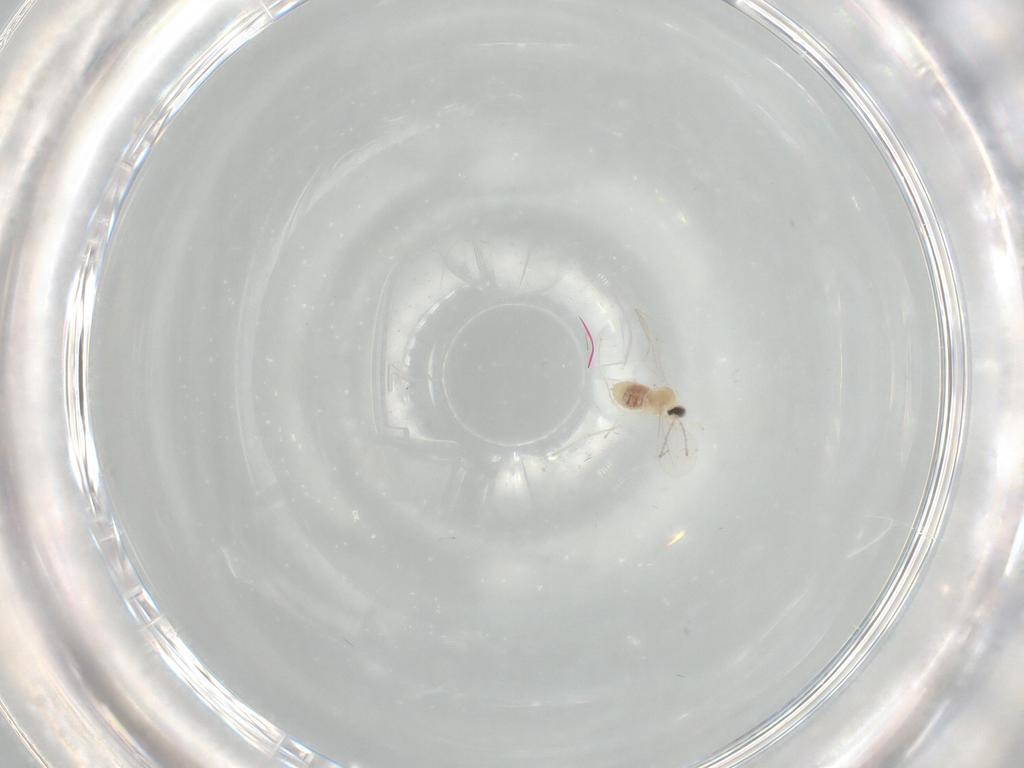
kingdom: Animalia
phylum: Arthropoda
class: Insecta
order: Diptera
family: Cecidomyiidae
